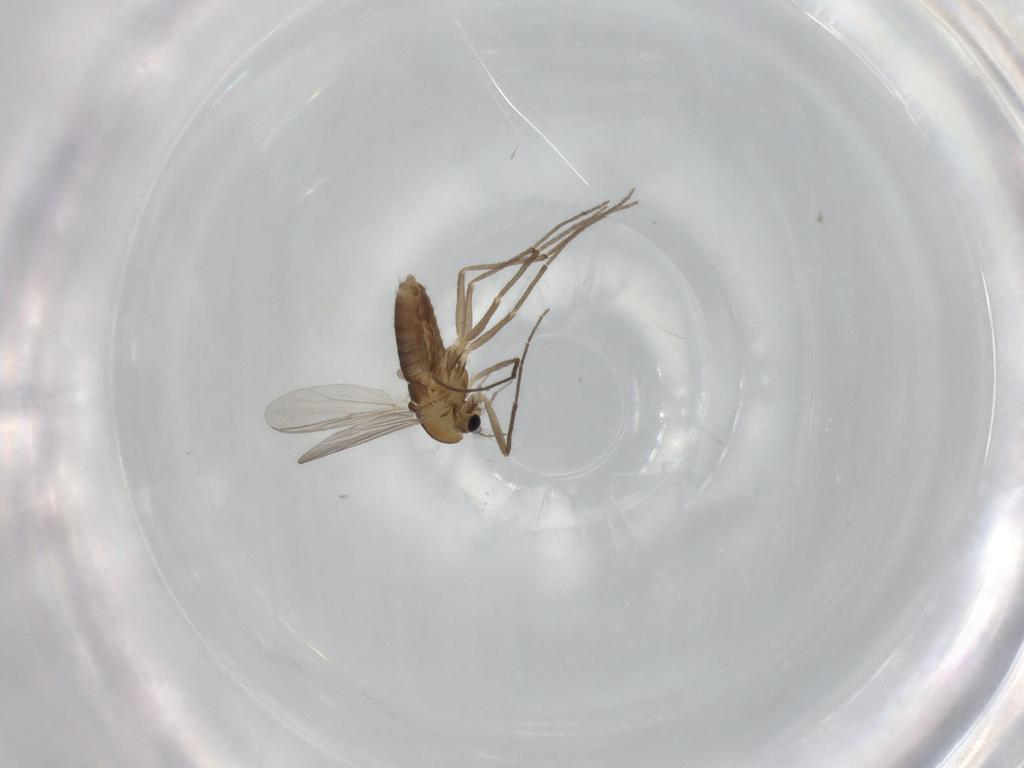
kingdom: Animalia
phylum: Arthropoda
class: Insecta
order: Diptera
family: Chironomidae
